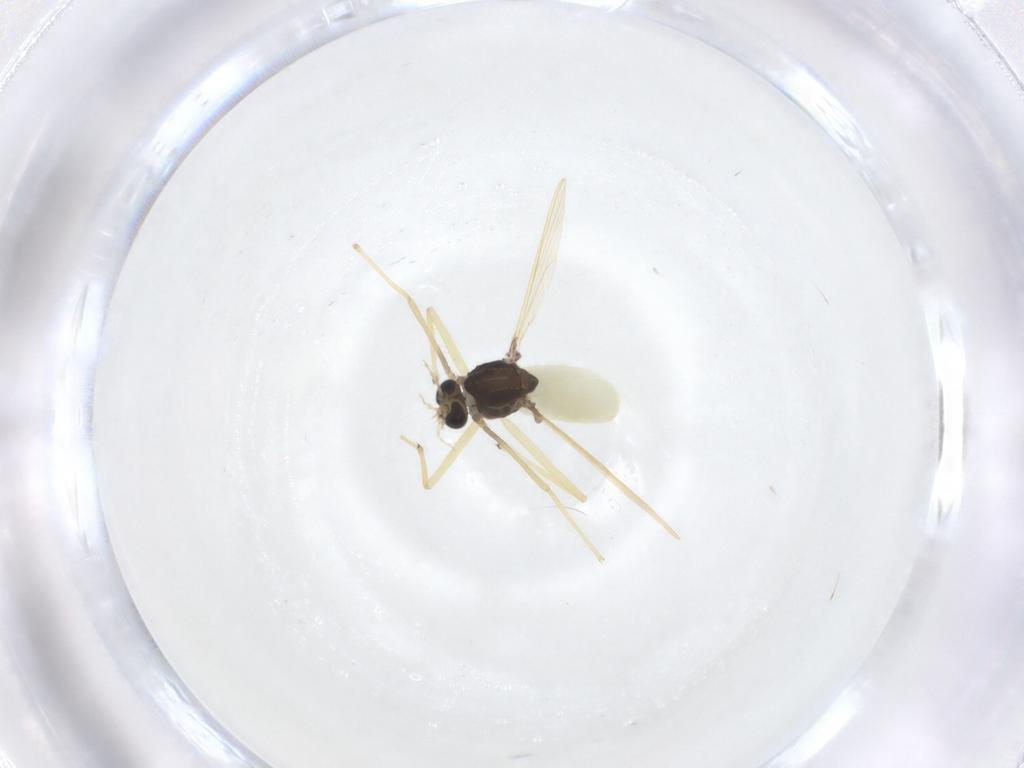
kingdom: Animalia
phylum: Arthropoda
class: Insecta
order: Diptera
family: Chironomidae
